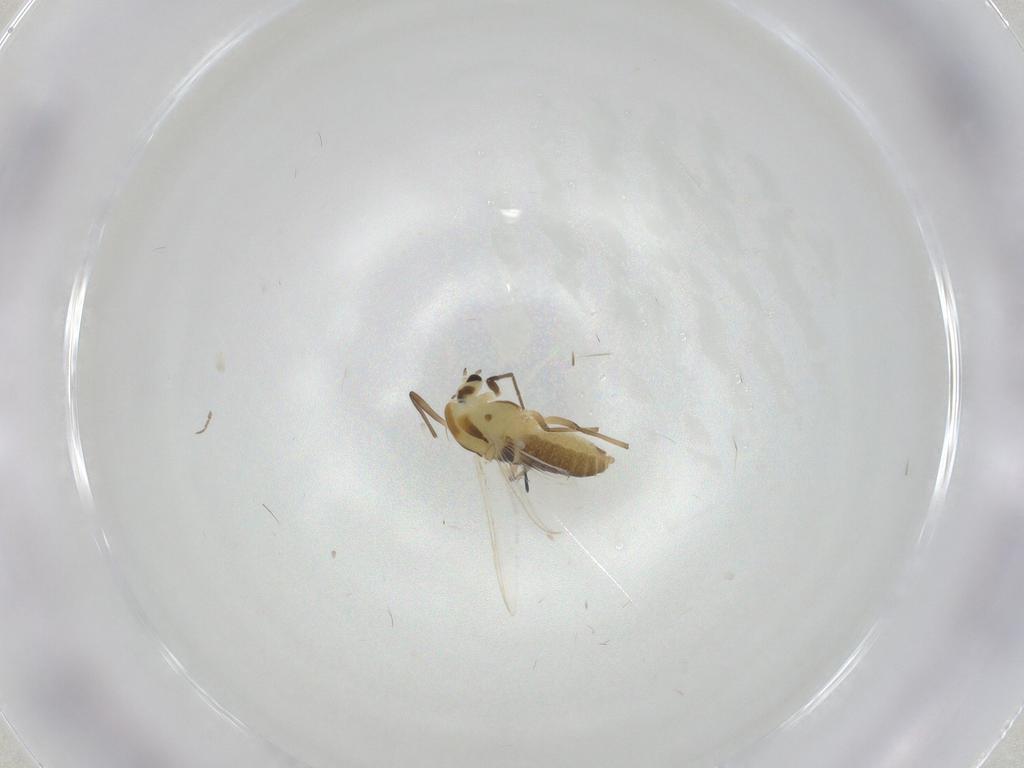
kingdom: Animalia
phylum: Arthropoda
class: Insecta
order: Diptera
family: Chironomidae
